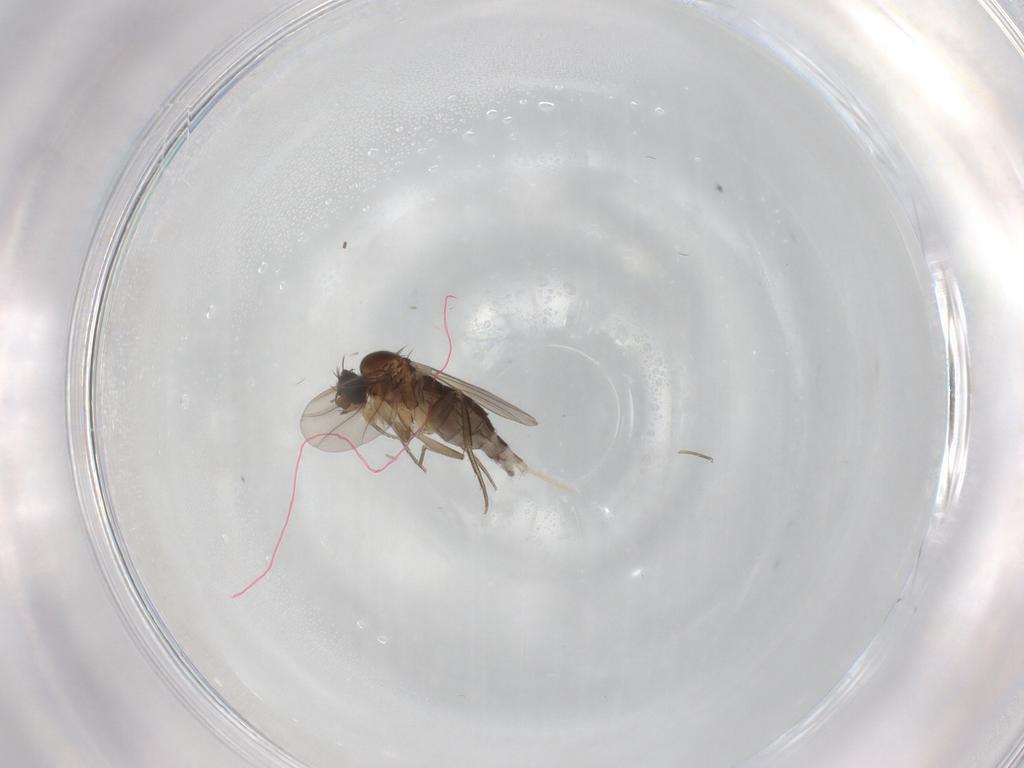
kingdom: Animalia
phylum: Arthropoda
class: Insecta
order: Diptera
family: Phoridae
